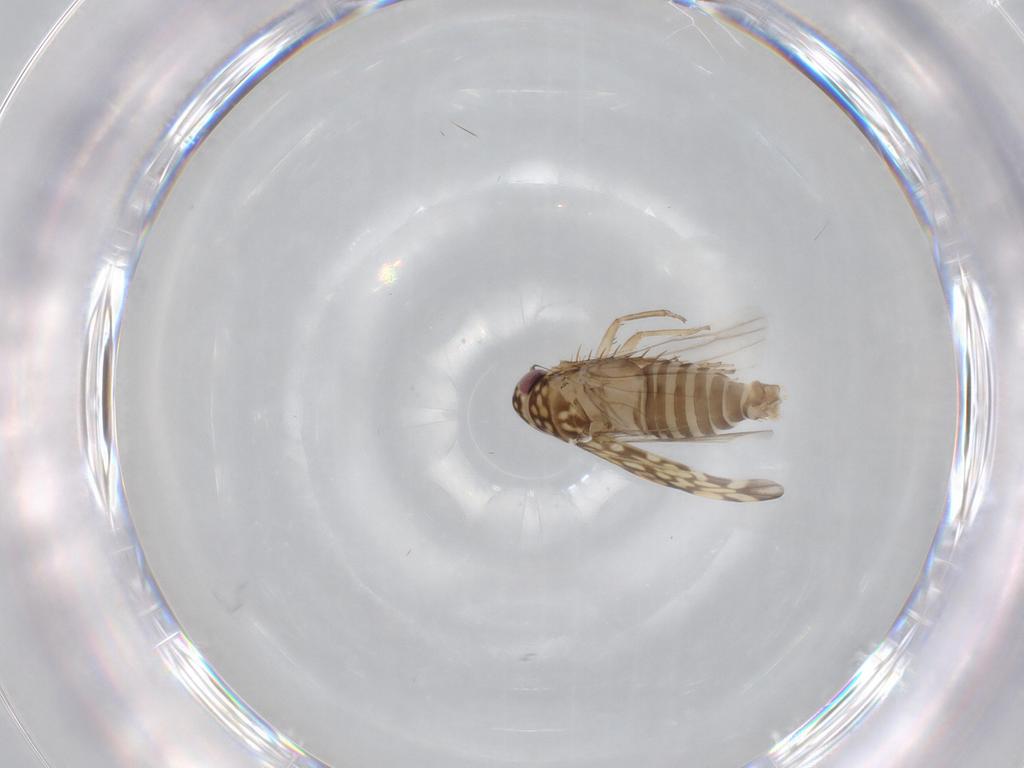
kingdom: Animalia
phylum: Arthropoda
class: Insecta
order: Hemiptera
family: Cicadellidae
